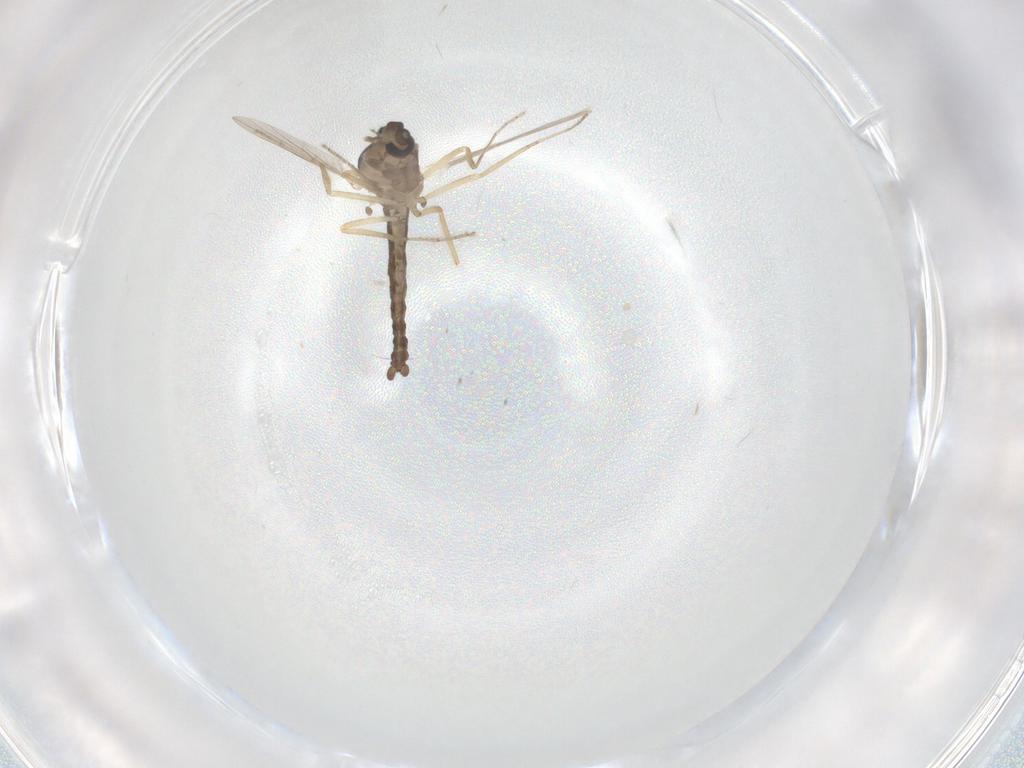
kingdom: Animalia
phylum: Arthropoda
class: Insecta
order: Diptera
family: Ceratopogonidae
